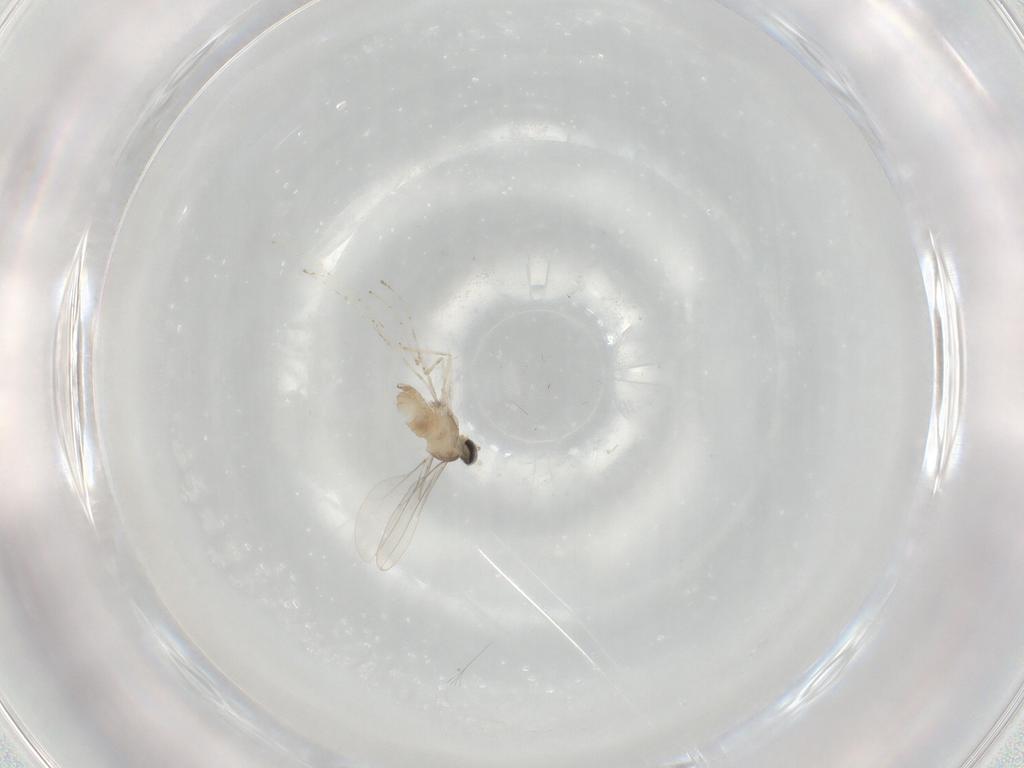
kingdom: Animalia
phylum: Arthropoda
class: Insecta
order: Diptera
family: Cecidomyiidae
